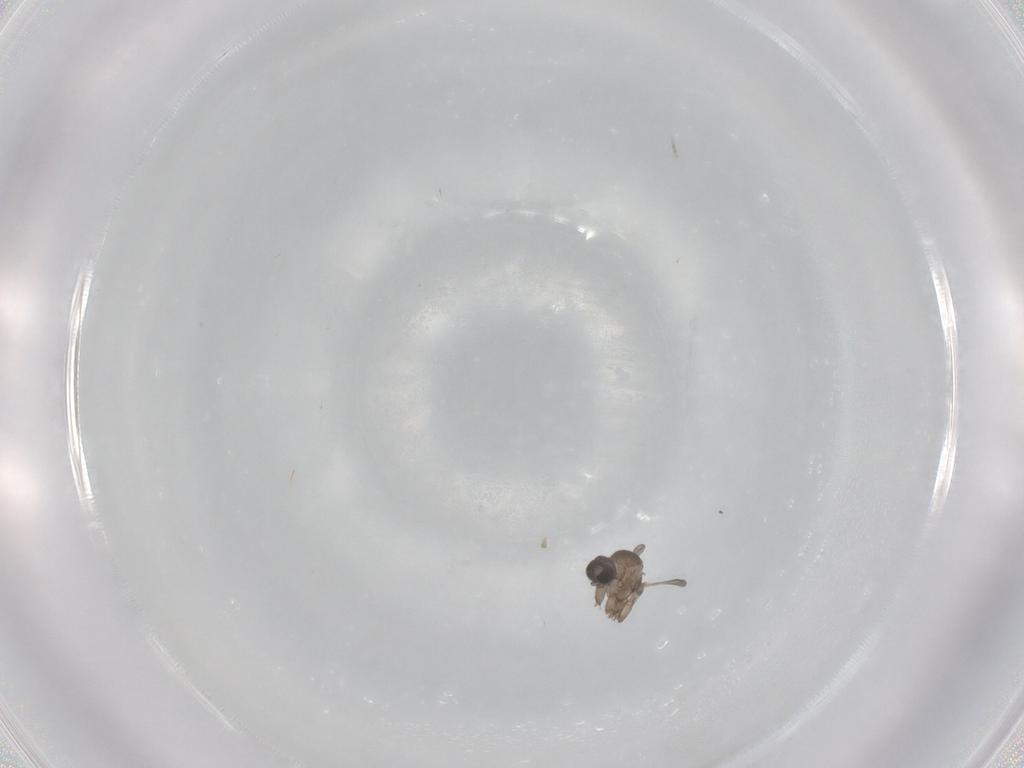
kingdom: Animalia
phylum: Arthropoda
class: Insecta
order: Diptera
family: Sciaridae
